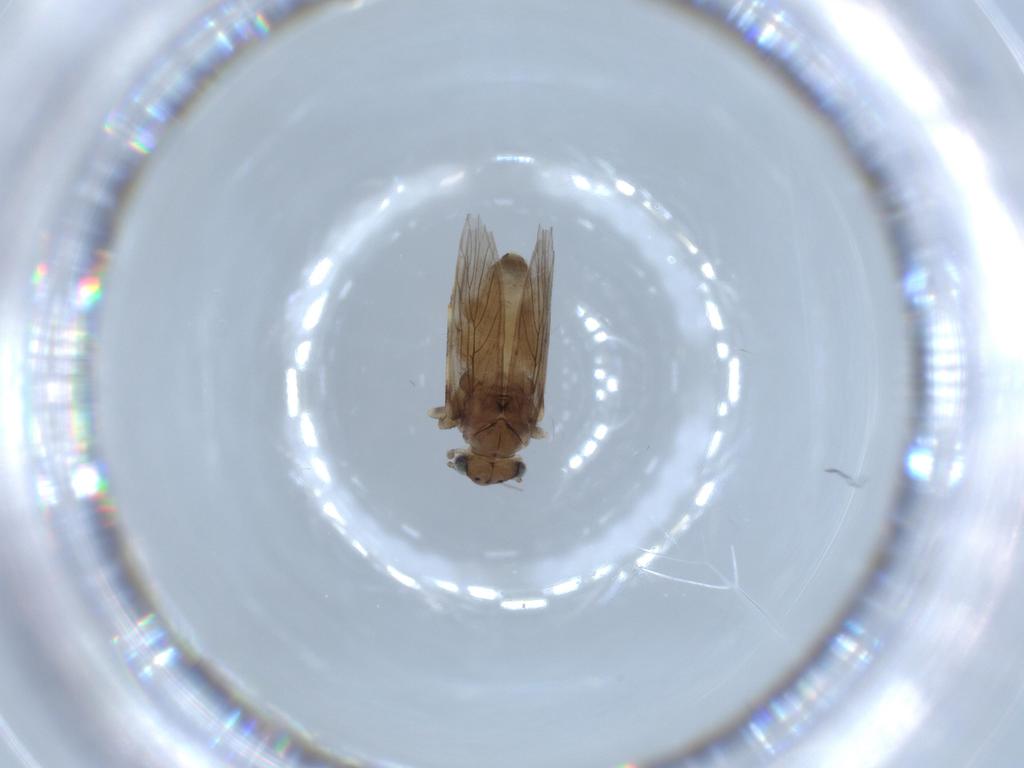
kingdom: Animalia
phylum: Arthropoda
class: Insecta
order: Psocodea
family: Lepidopsocidae
